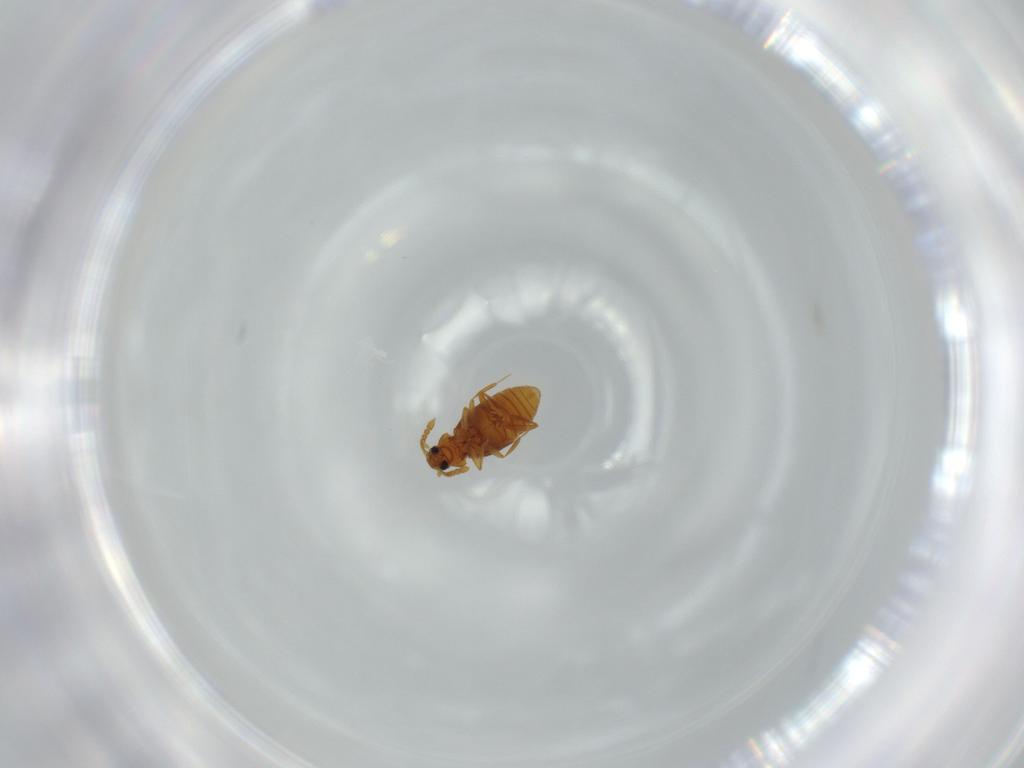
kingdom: Animalia
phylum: Arthropoda
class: Insecta
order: Coleoptera
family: Staphylinidae
